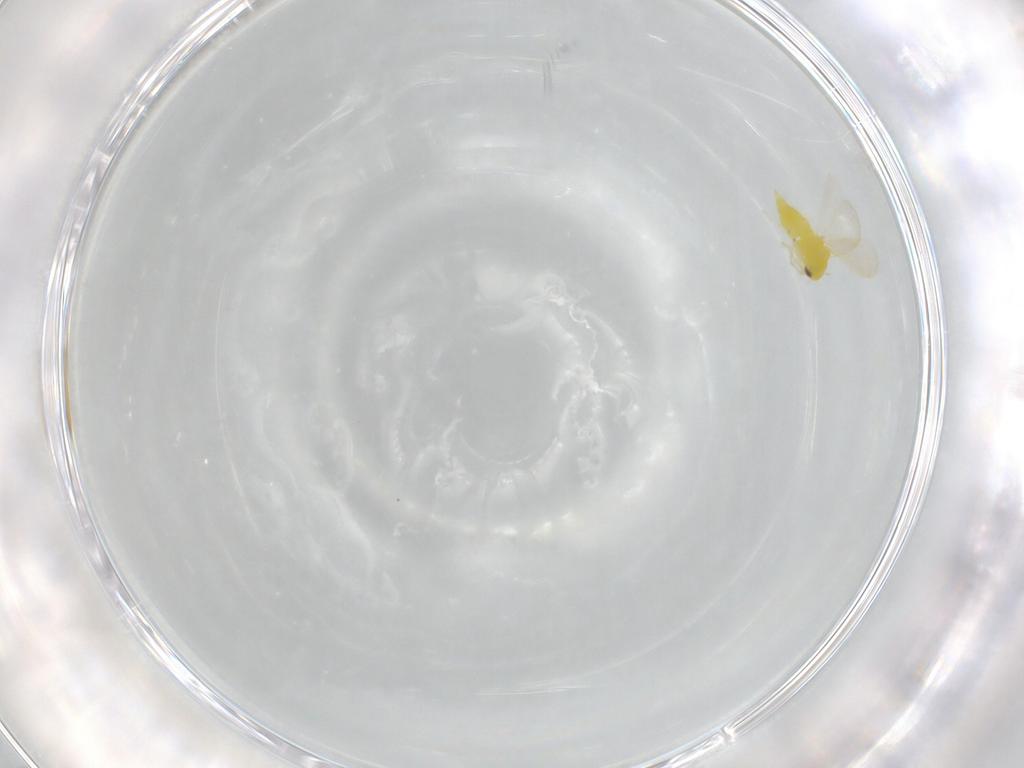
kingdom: Animalia
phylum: Arthropoda
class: Insecta
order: Hemiptera
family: Aleyrodidae
